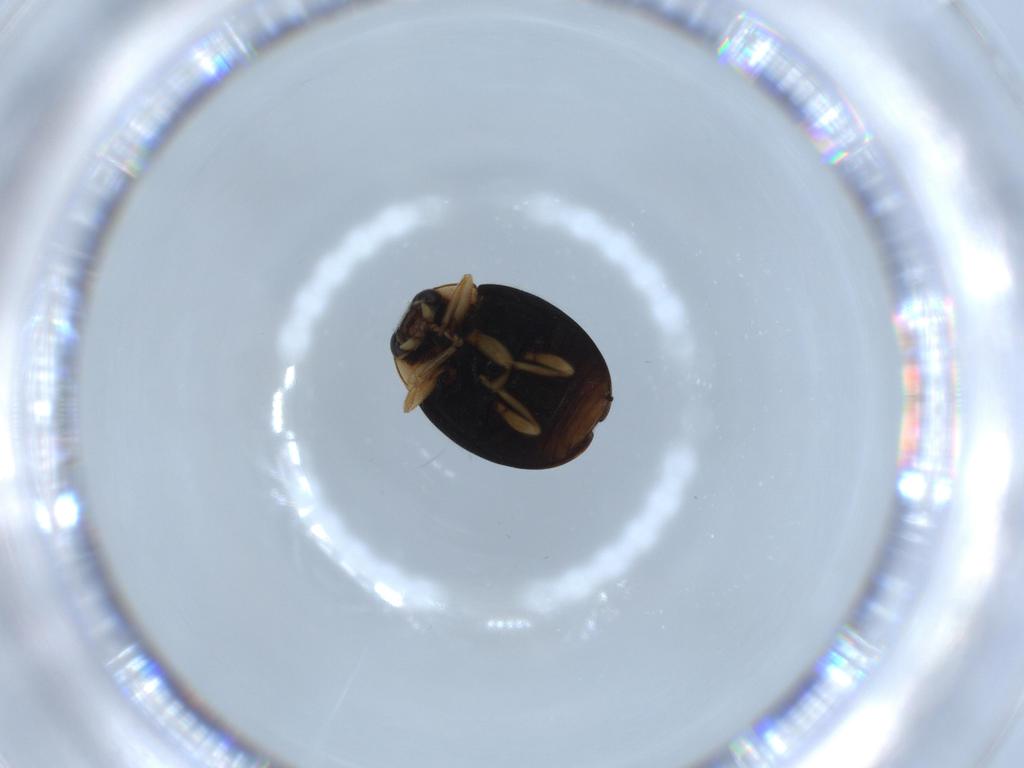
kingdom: Animalia
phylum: Arthropoda
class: Insecta
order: Coleoptera
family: Coccinellidae
